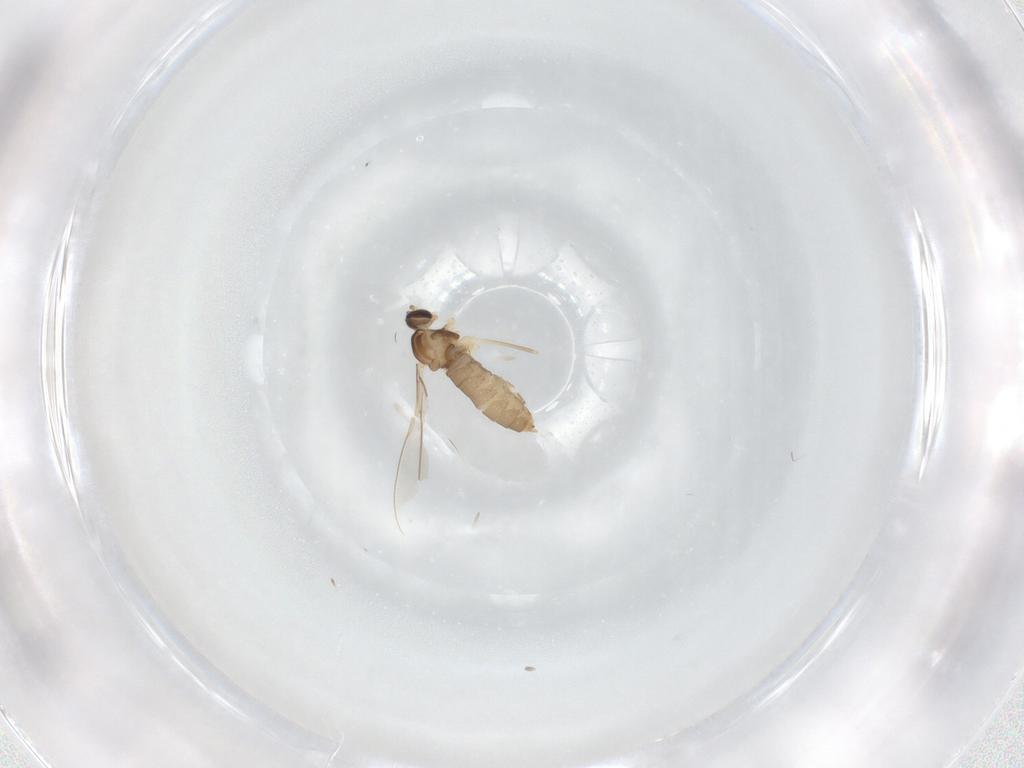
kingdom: Animalia
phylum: Arthropoda
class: Insecta
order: Diptera
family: Cecidomyiidae
